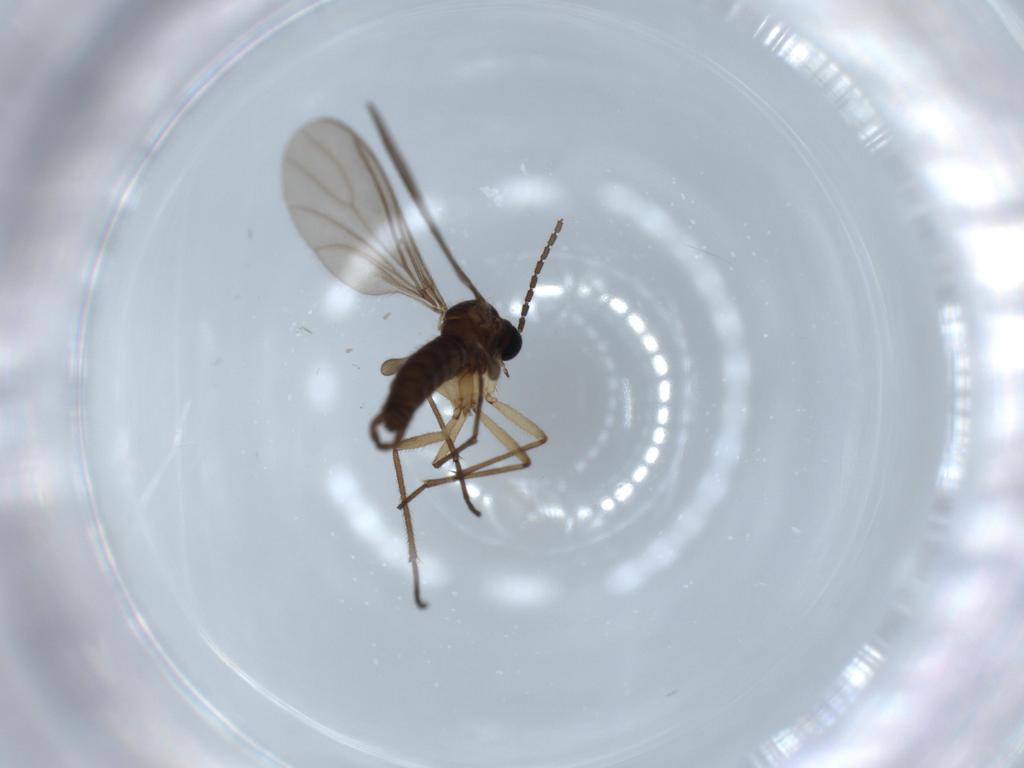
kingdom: Animalia
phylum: Arthropoda
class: Insecta
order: Diptera
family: Sciaridae
